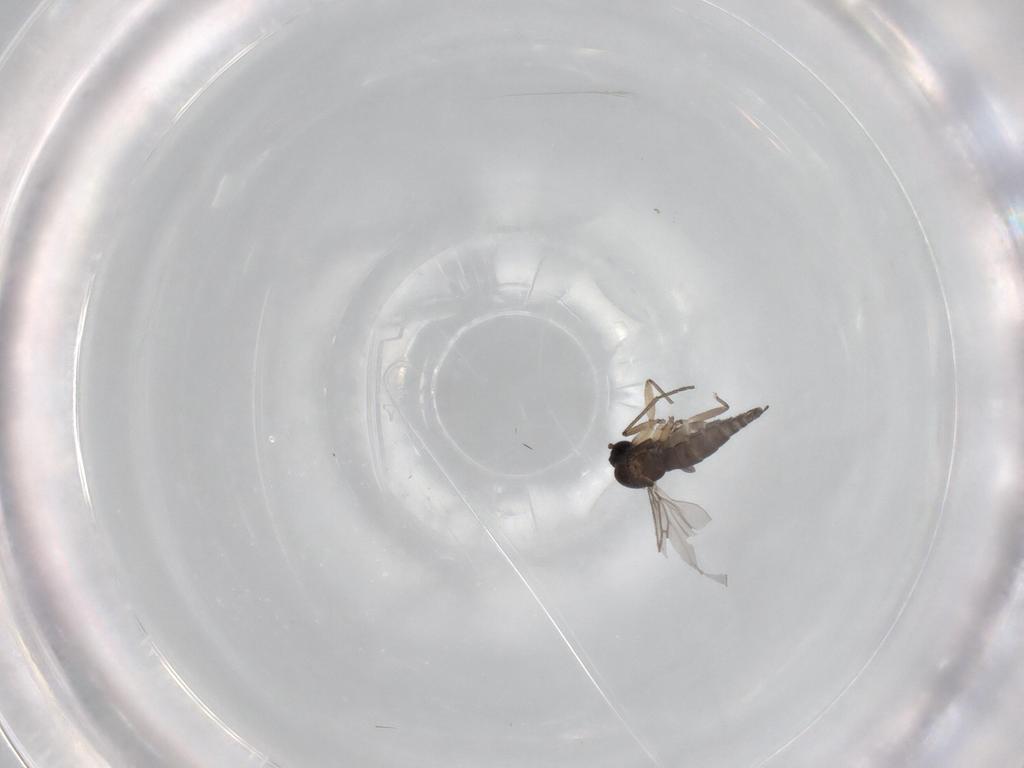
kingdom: Animalia
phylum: Arthropoda
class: Insecta
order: Diptera
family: Sciaridae
